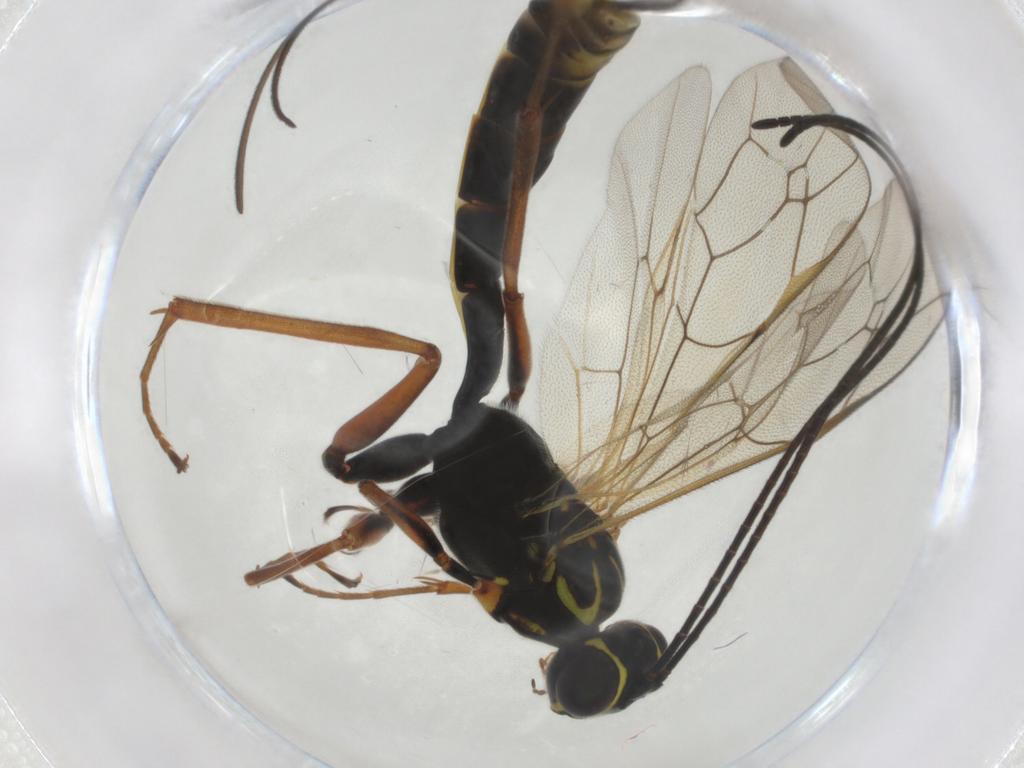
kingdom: Animalia
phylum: Arthropoda
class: Insecta
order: Hymenoptera
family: Ichneumonidae
